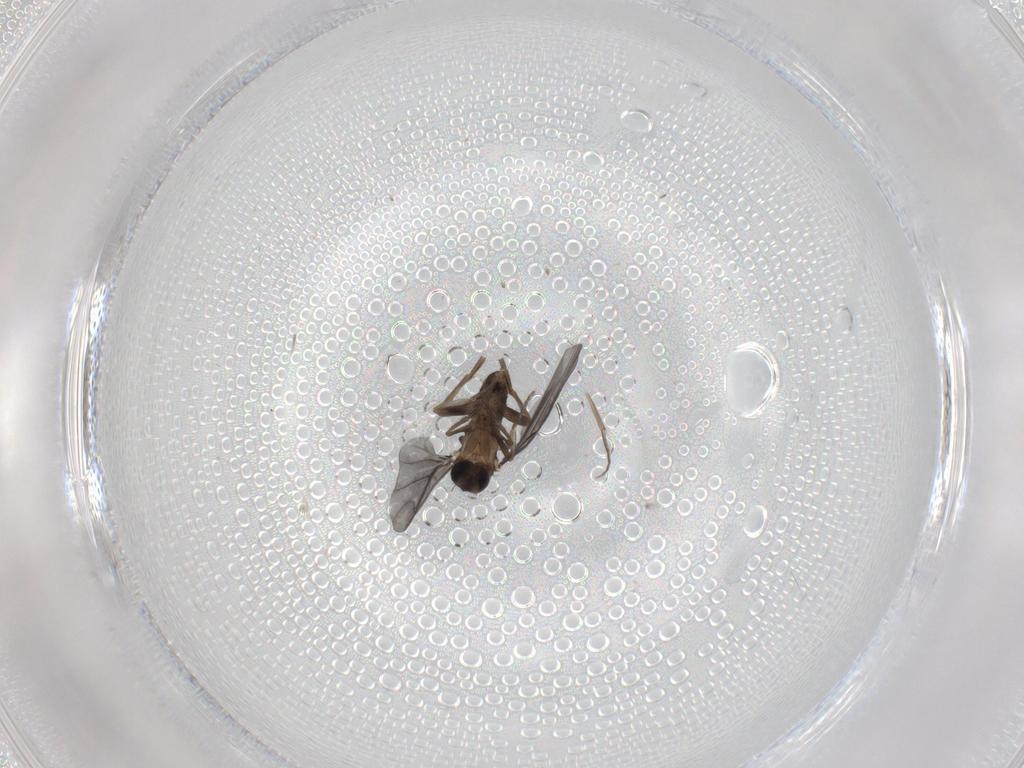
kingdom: Animalia
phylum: Arthropoda
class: Insecta
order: Diptera
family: Phoridae
